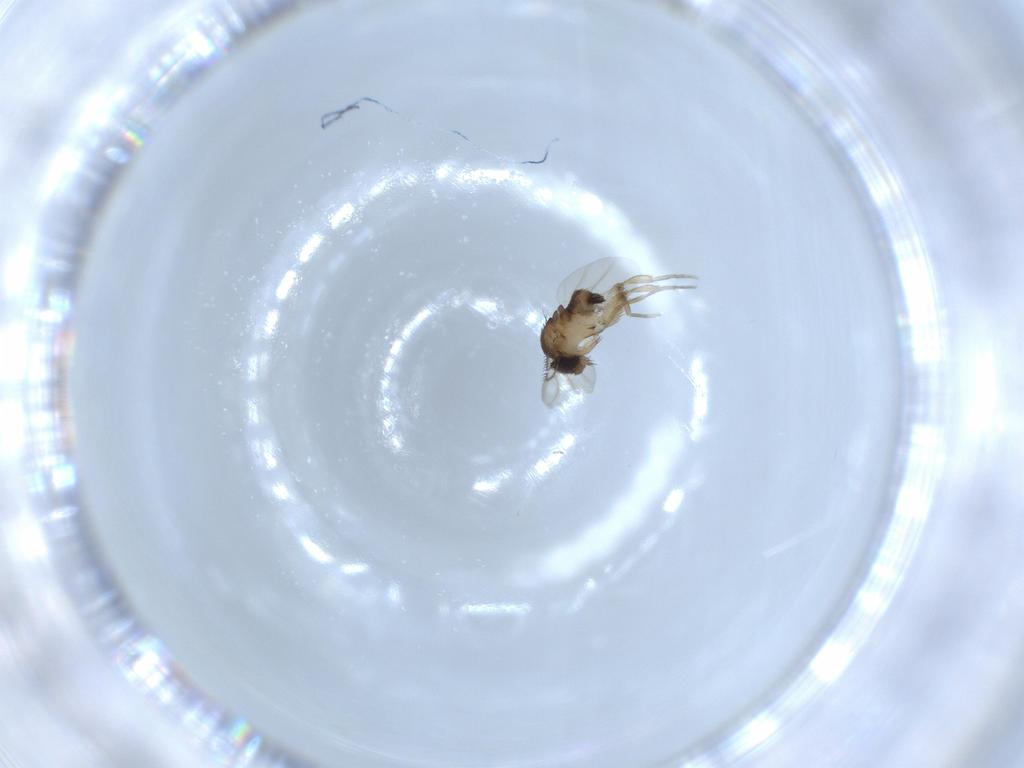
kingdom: Animalia
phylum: Arthropoda
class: Insecta
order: Diptera
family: Phoridae
